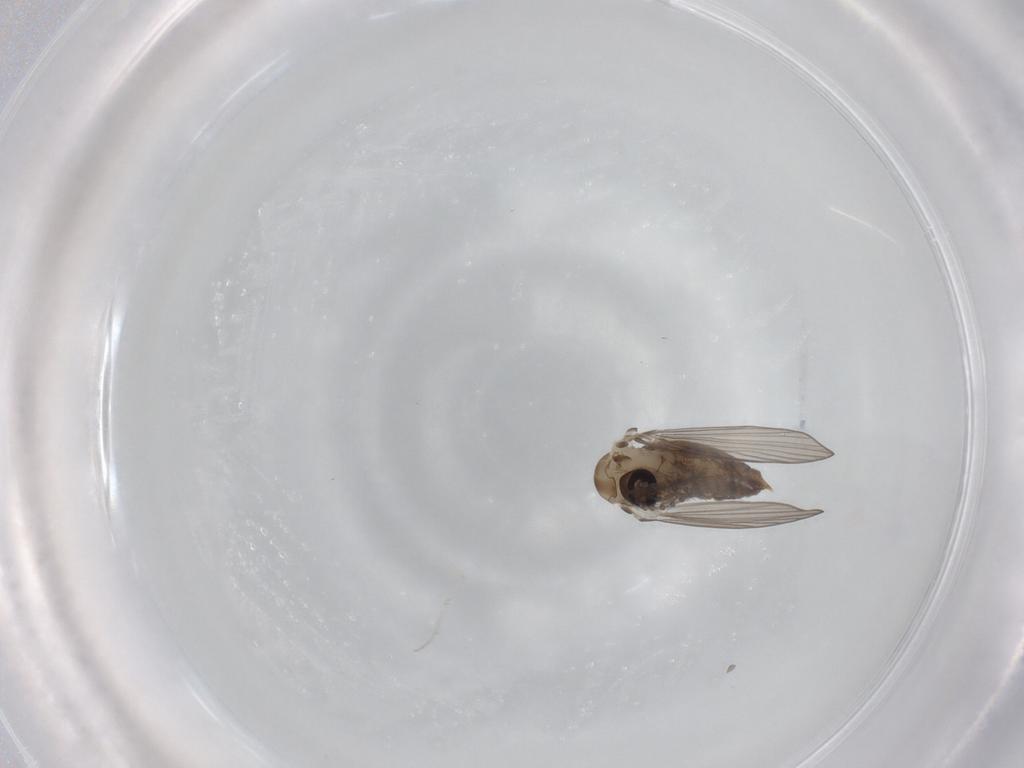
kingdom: Animalia
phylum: Arthropoda
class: Insecta
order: Diptera
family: Psychodidae
